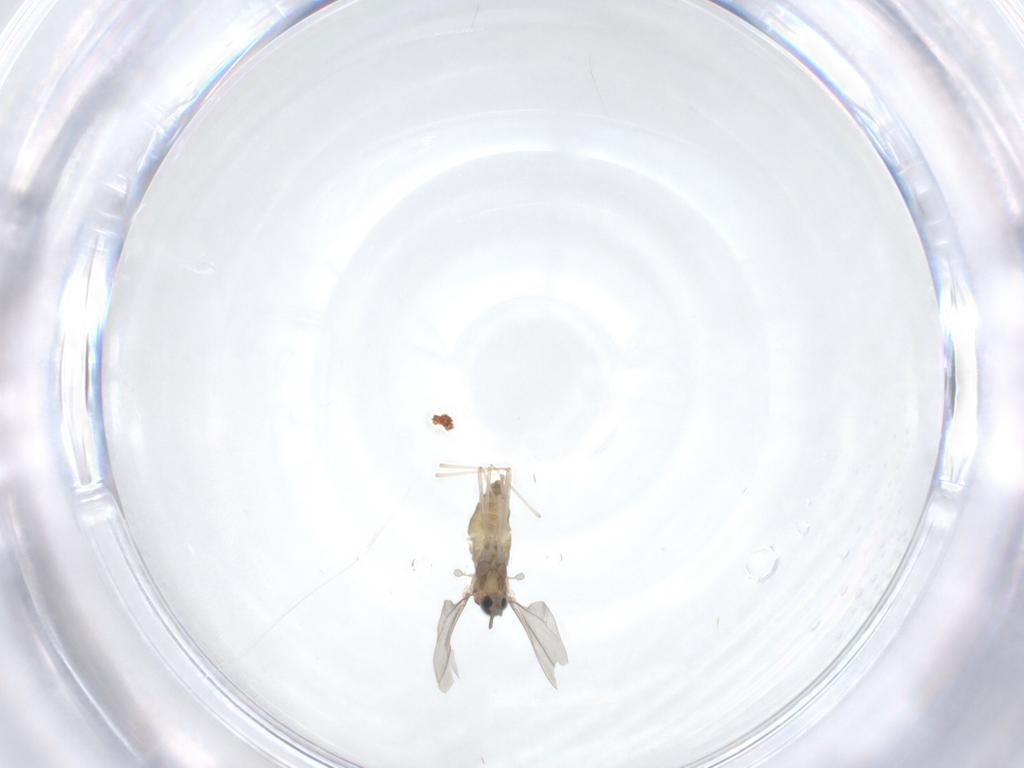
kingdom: Animalia
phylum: Arthropoda
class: Insecta
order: Diptera
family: Cecidomyiidae
